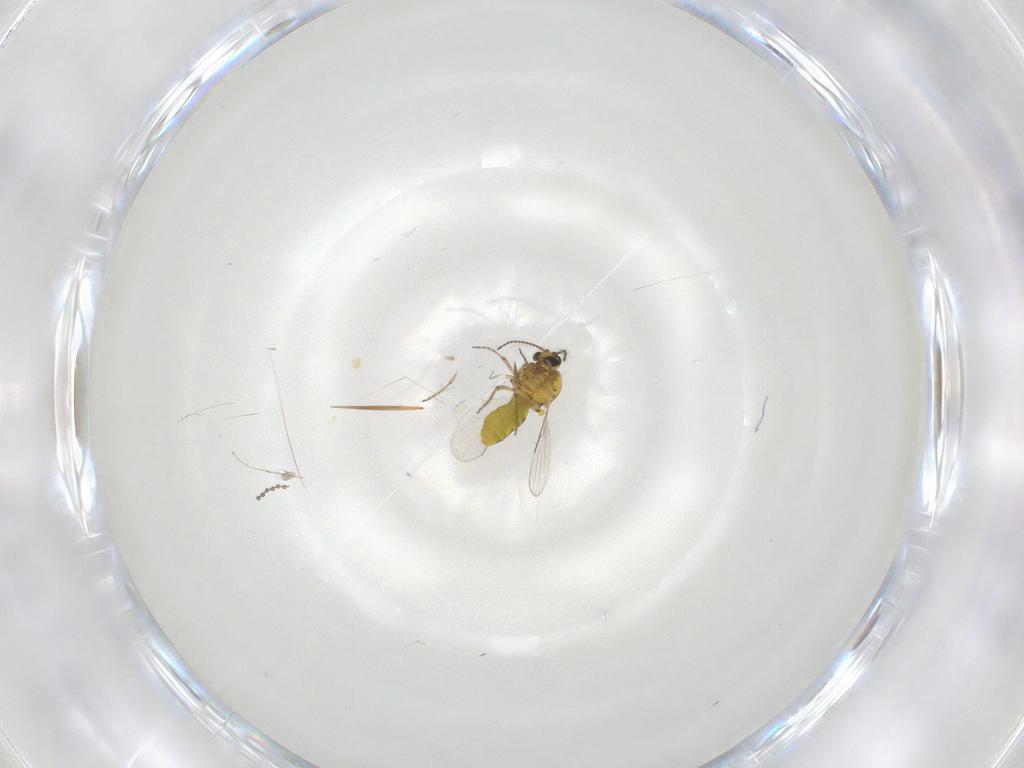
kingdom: Animalia
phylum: Arthropoda
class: Insecta
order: Diptera
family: Ceratopogonidae
